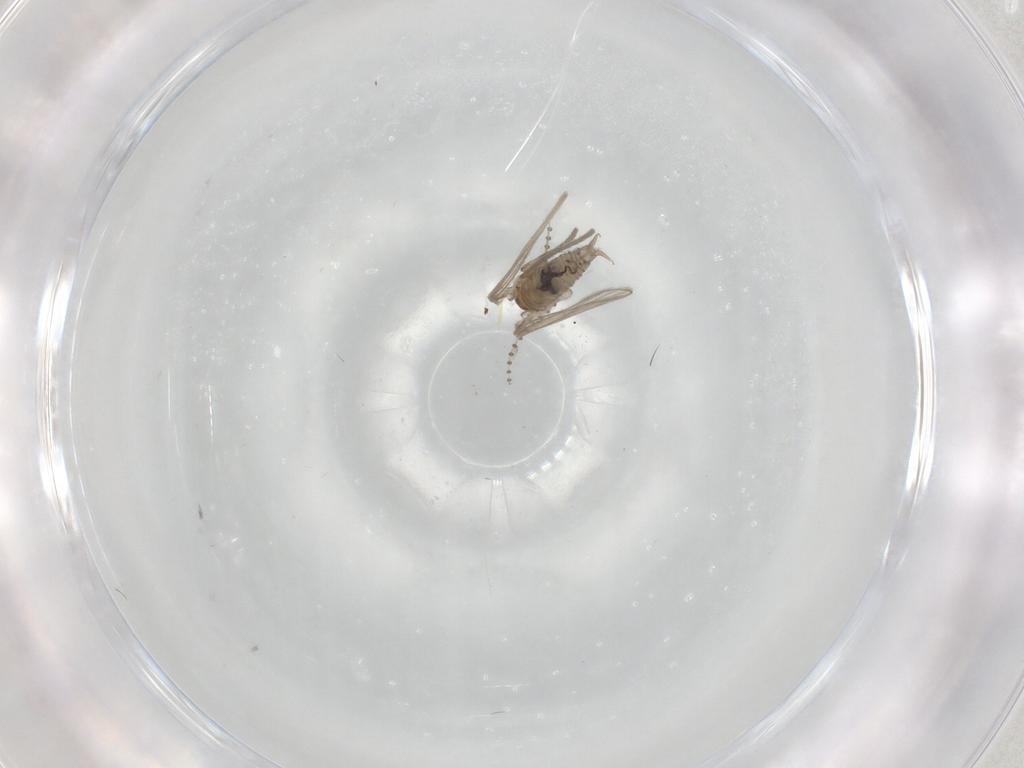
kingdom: Animalia
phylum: Arthropoda
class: Insecta
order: Diptera
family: Psychodidae
